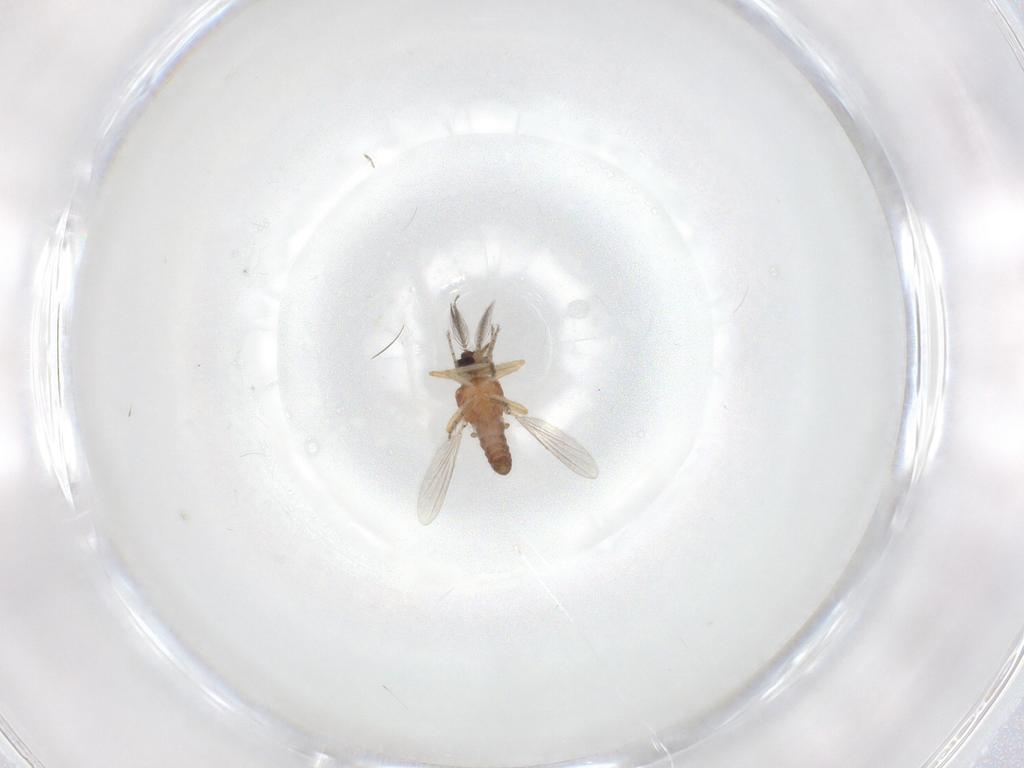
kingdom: Animalia
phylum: Arthropoda
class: Insecta
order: Diptera
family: Ceratopogonidae
